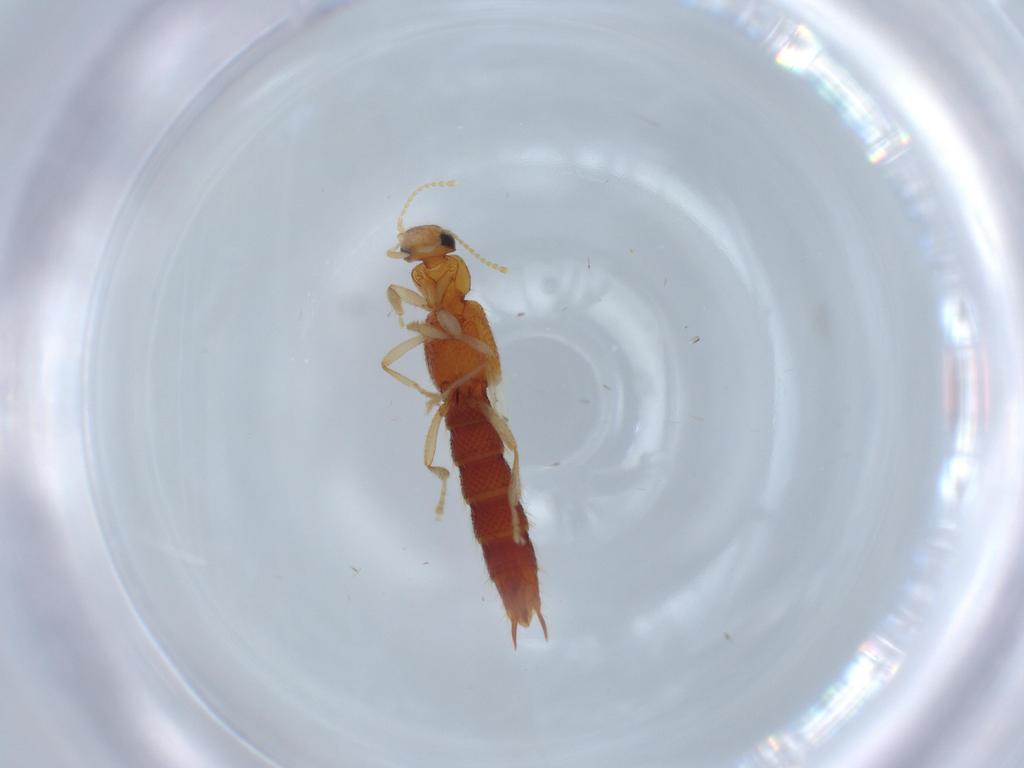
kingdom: Animalia
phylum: Arthropoda
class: Insecta
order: Coleoptera
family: Staphylinidae
